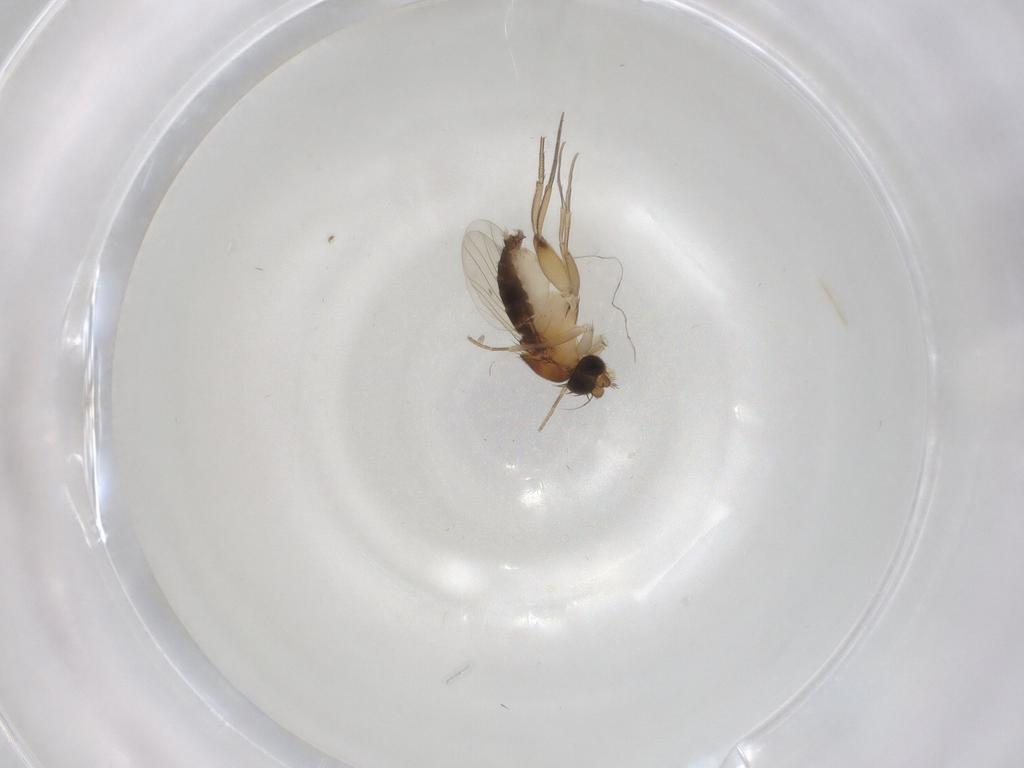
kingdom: Animalia
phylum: Arthropoda
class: Insecta
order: Diptera
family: Phoridae
